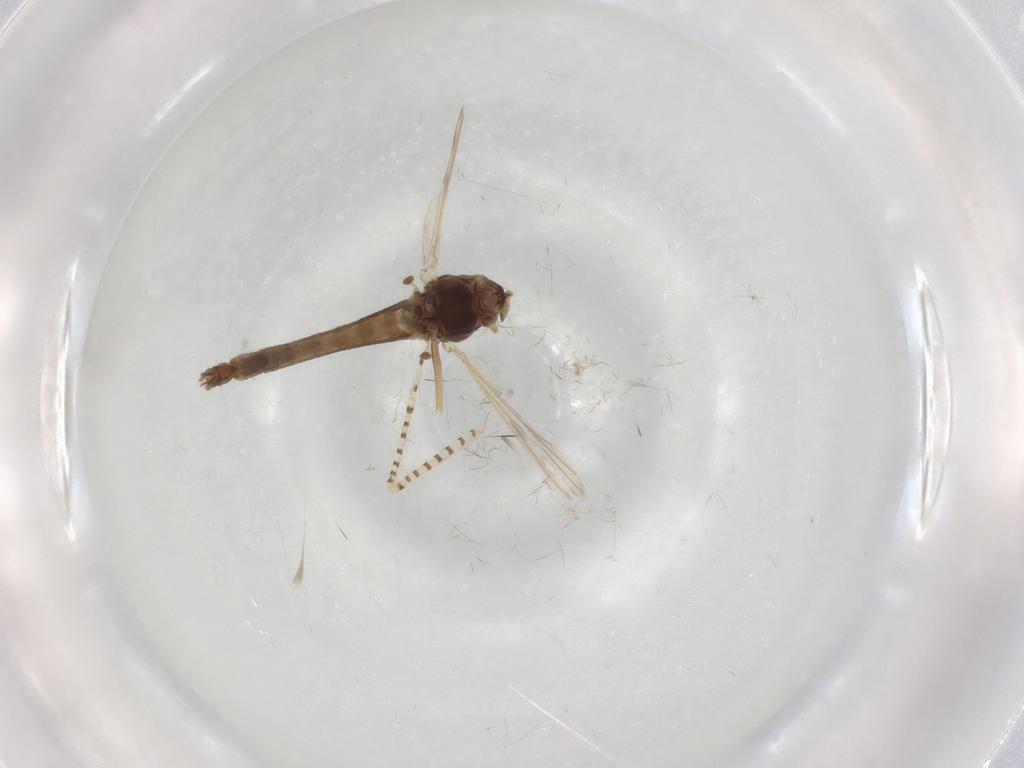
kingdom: Animalia
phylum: Arthropoda
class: Insecta
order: Diptera
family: Chironomidae
